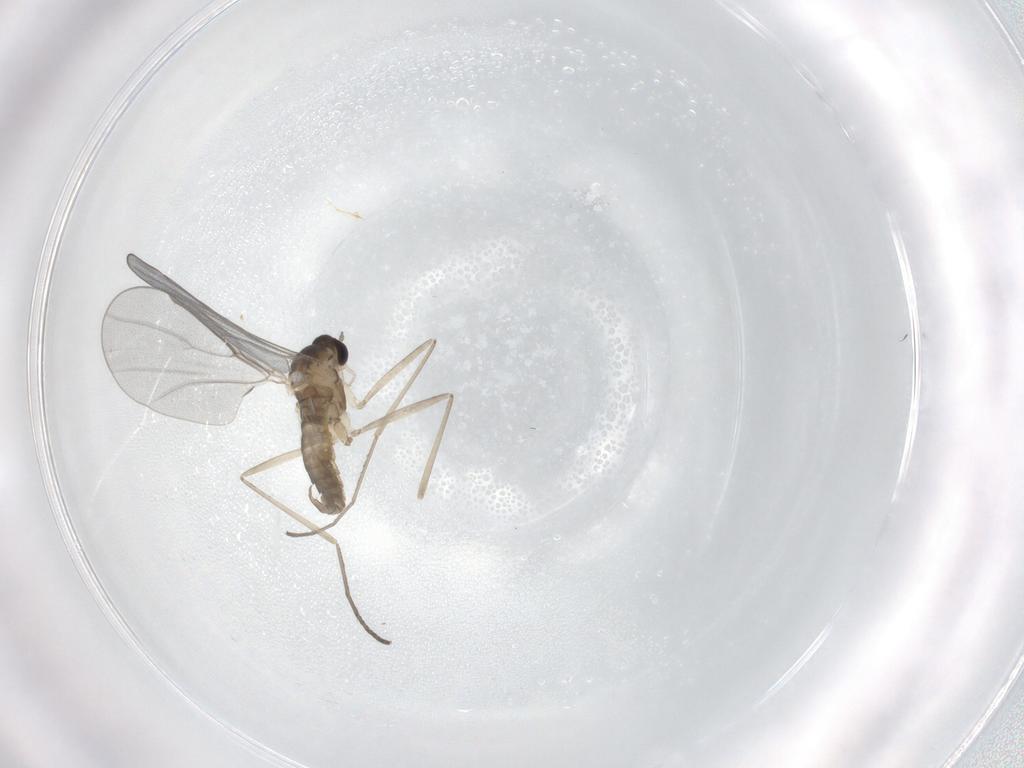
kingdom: Animalia
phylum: Arthropoda
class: Insecta
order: Diptera
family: Cecidomyiidae
